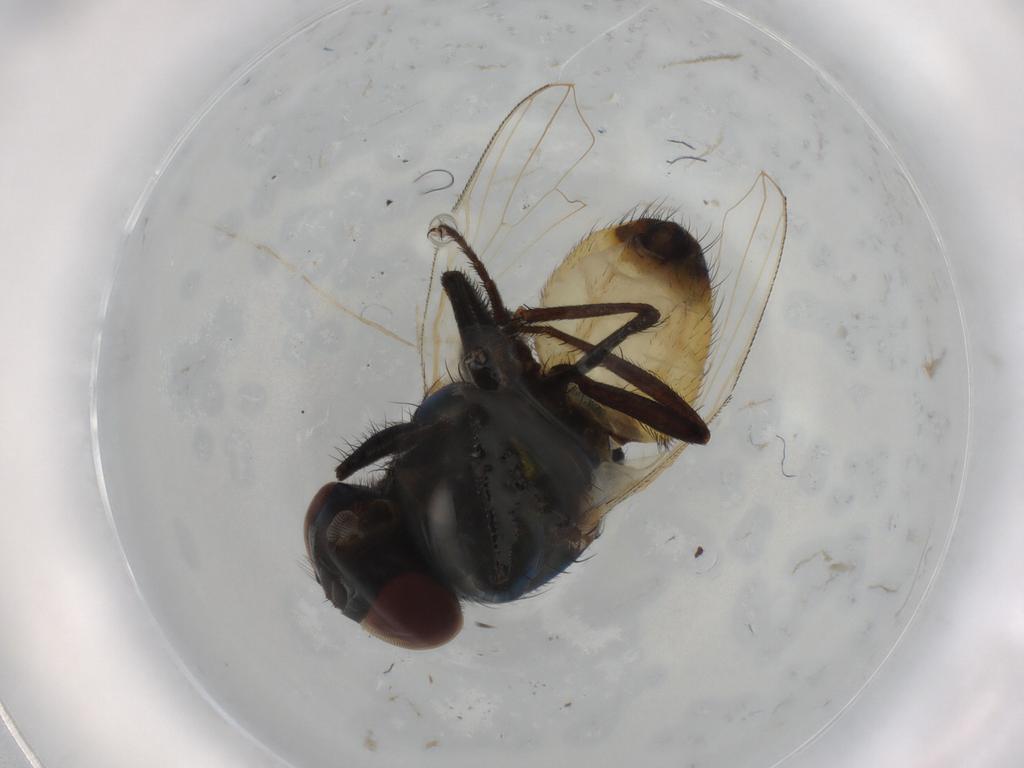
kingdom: Animalia
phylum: Arthropoda
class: Insecta
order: Diptera
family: Muscidae
